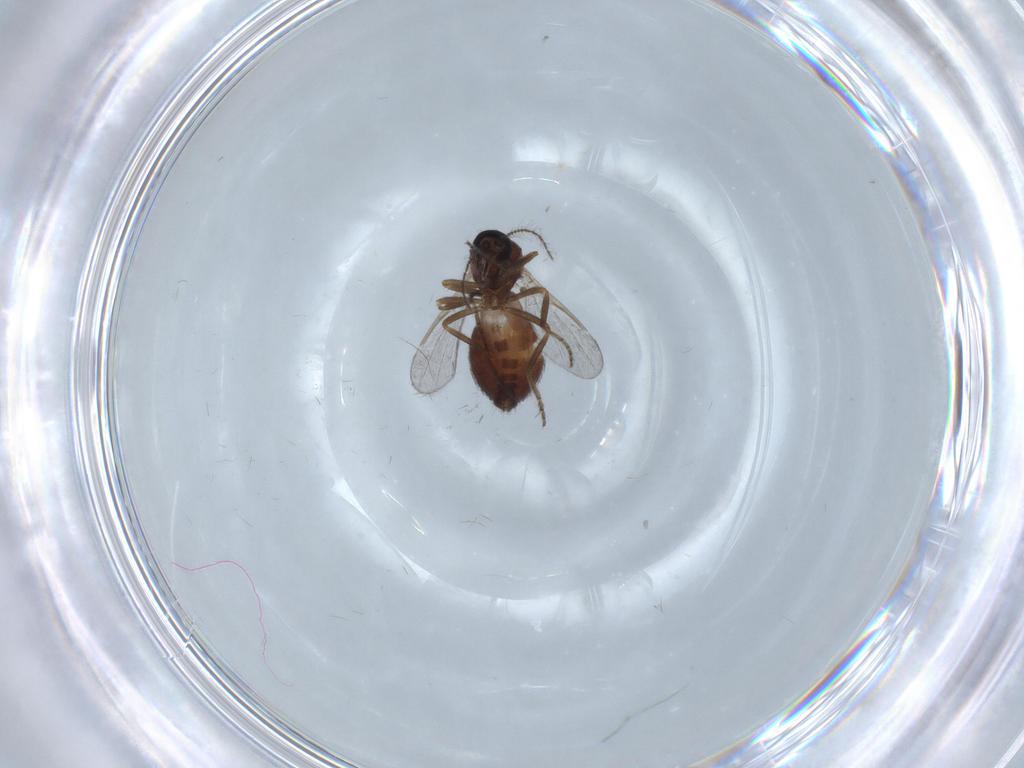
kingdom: Animalia
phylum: Arthropoda
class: Insecta
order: Diptera
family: Ceratopogonidae
